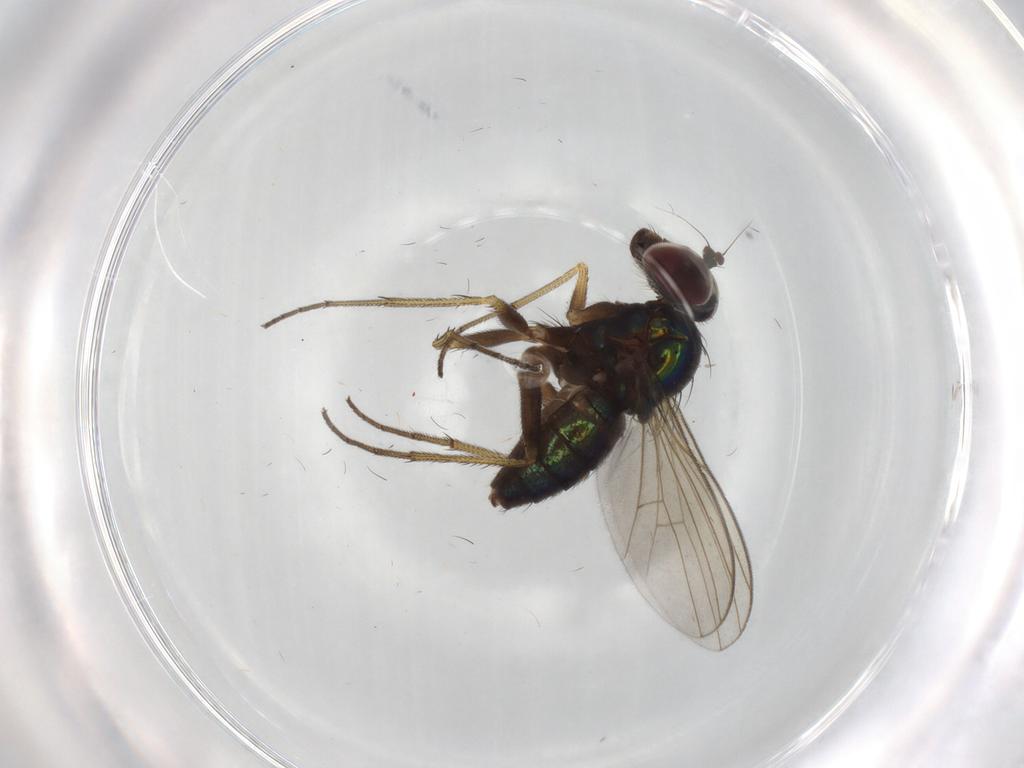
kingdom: Animalia
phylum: Arthropoda
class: Insecta
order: Diptera
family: Dolichopodidae
